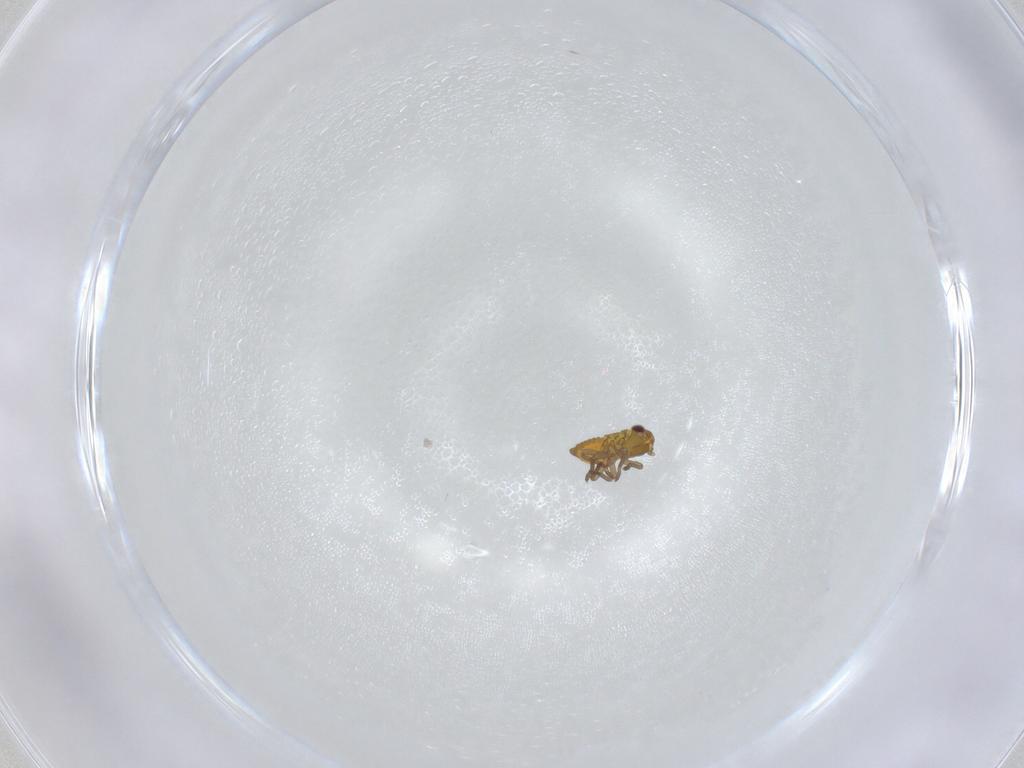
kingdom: Animalia
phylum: Arthropoda
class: Insecta
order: Hemiptera
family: Cicadellidae
